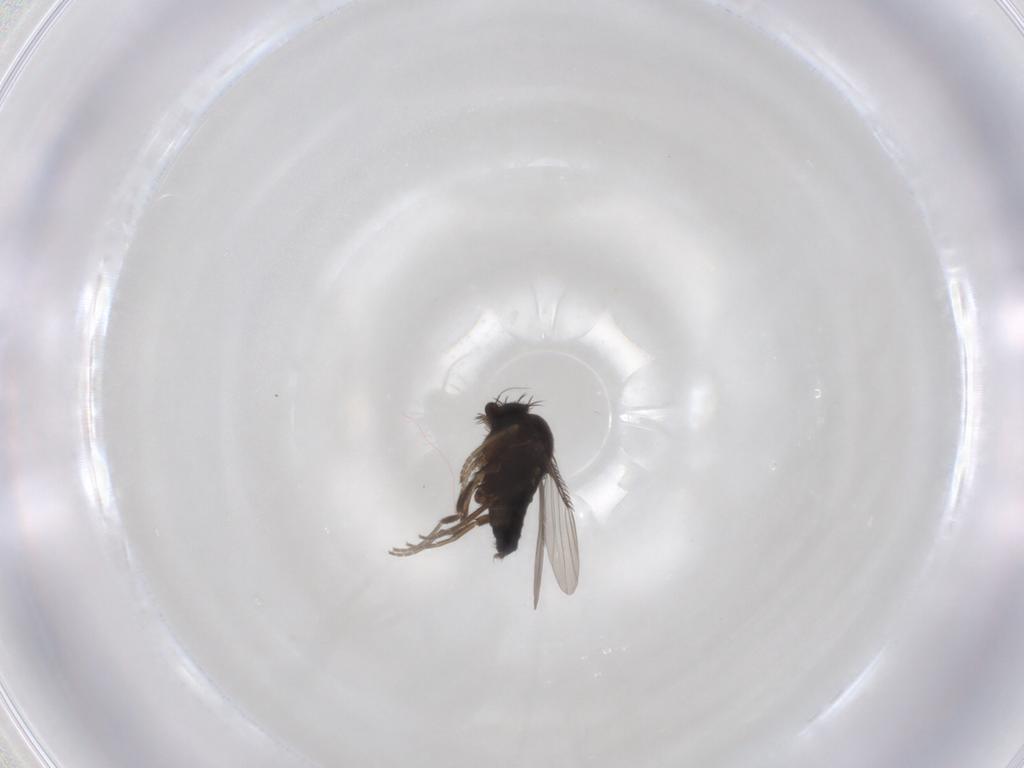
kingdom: Animalia
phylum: Arthropoda
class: Insecta
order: Diptera
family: Phoridae
